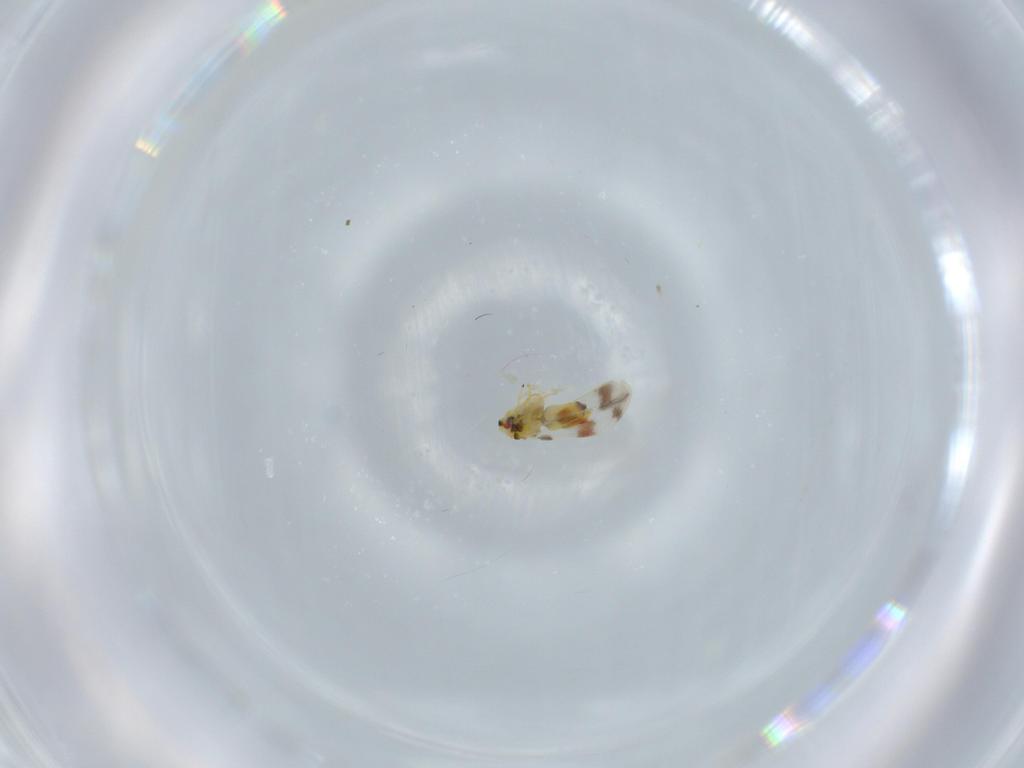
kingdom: Animalia
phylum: Arthropoda
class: Insecta
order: Hemiptera
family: Aleyrodidae
